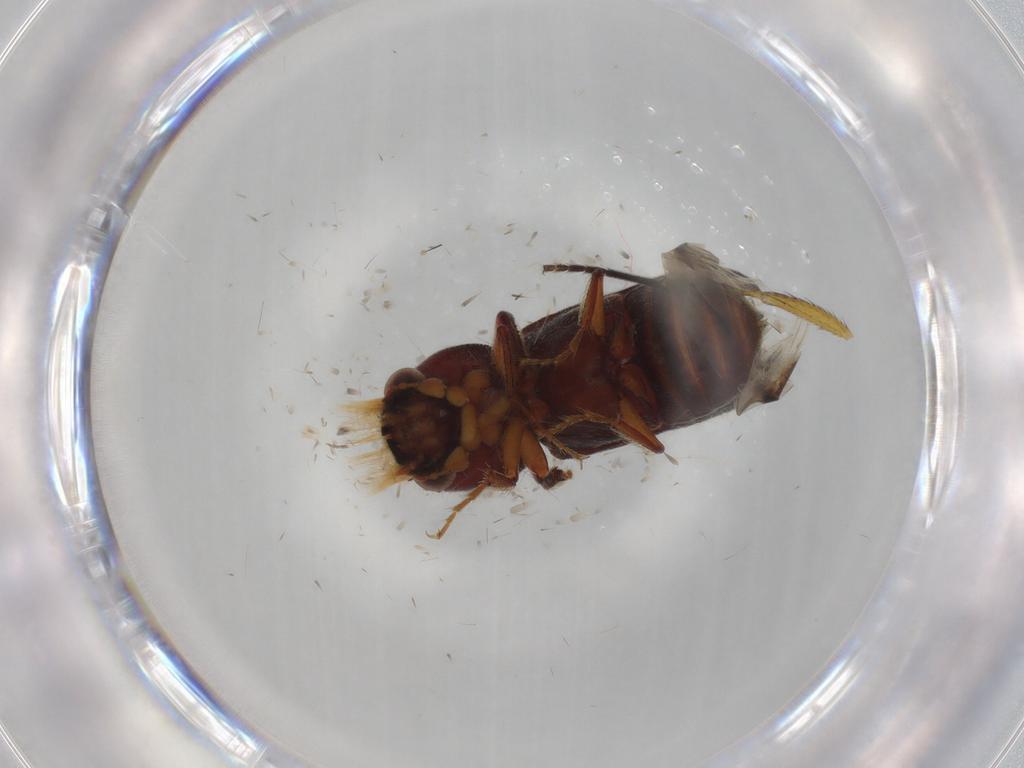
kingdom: Animalia
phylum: Arthropoda
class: Insecta
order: Coleoptera
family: Bostrichidae
